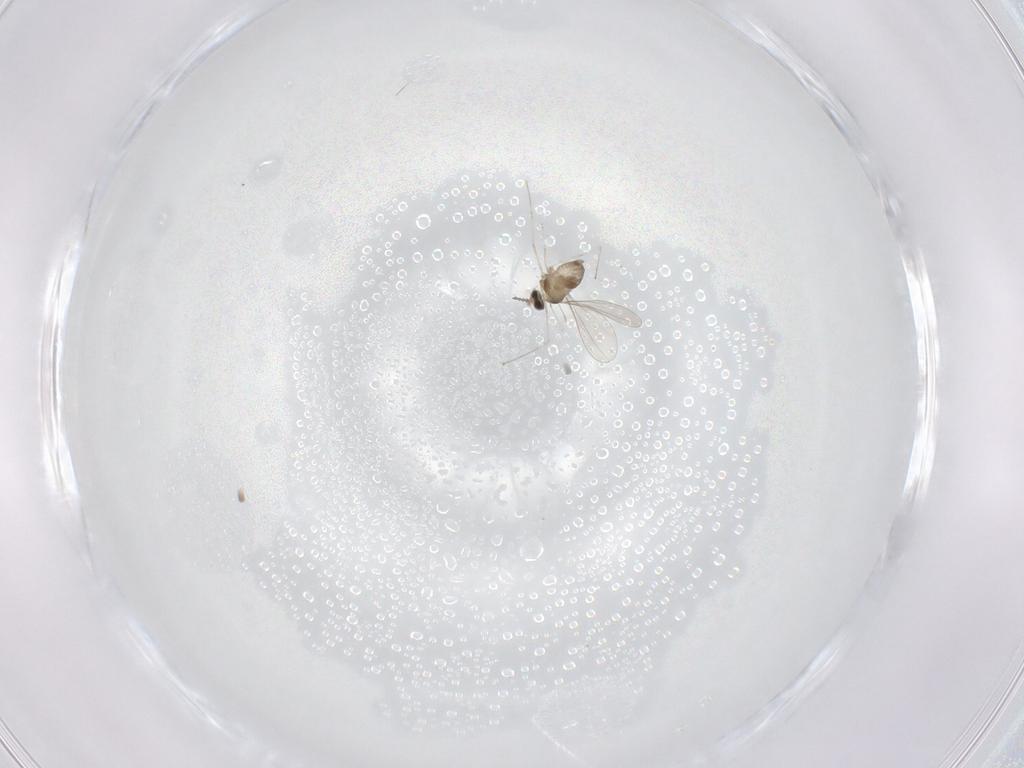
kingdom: Animalia
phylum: Arthropoda
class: Insecta
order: Diptera
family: Cecidomyiidae
